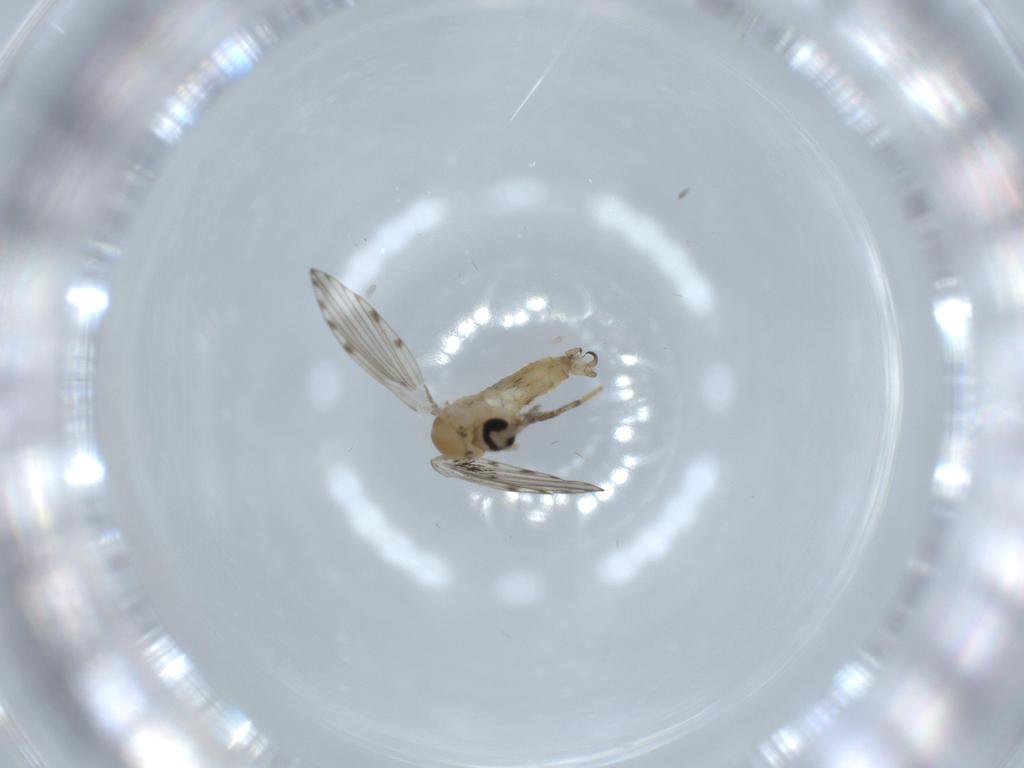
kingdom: Animalia
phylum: Arthropoda
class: Insecta
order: Diptera
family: Psychodidae
